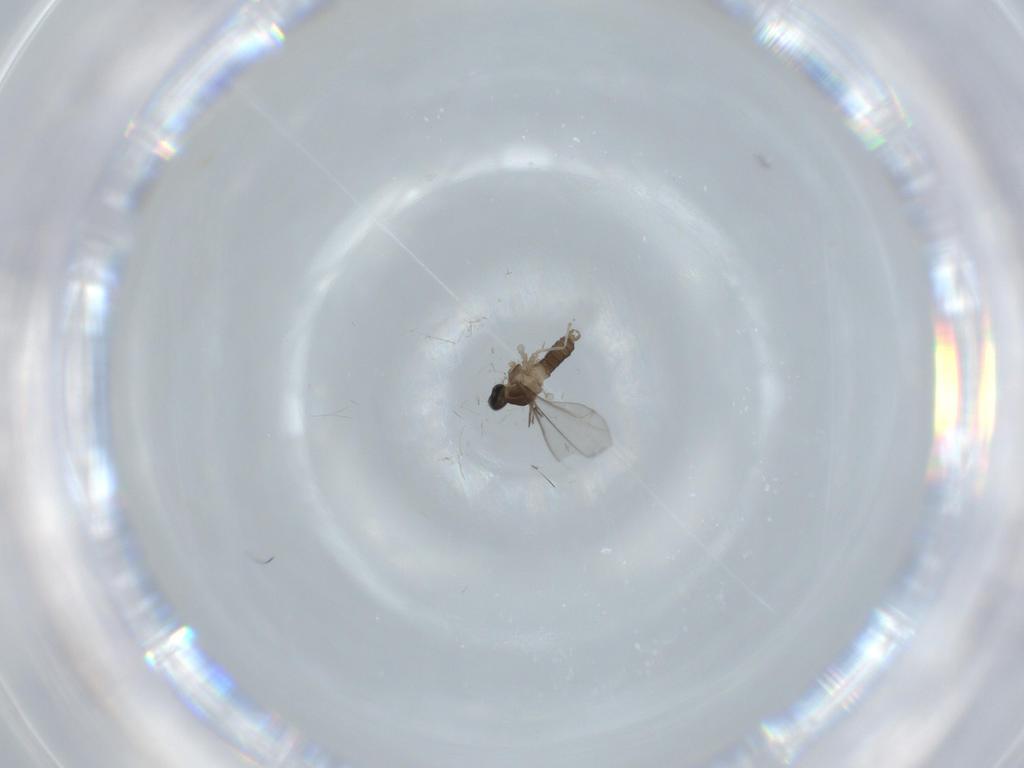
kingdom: Animalia
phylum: Arthropoda
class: Insecta
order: Diptera
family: Cecidomyiidae
